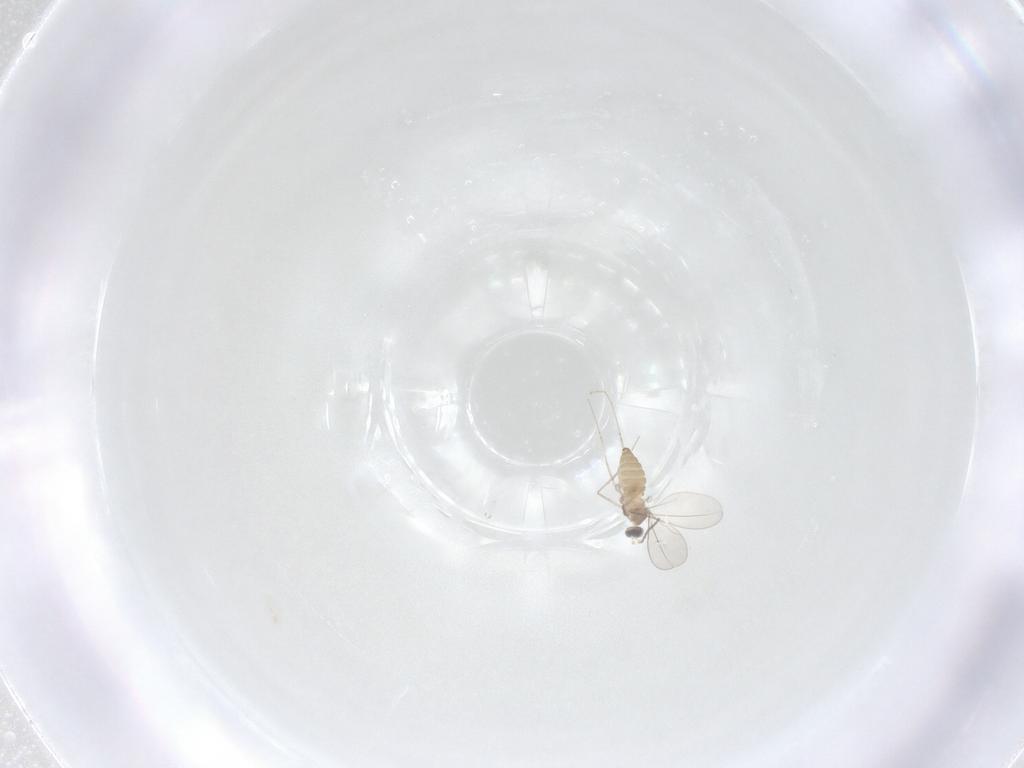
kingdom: Animalia
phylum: Arthropoda
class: Insecta
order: Diptera
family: Cecidomyiidae
